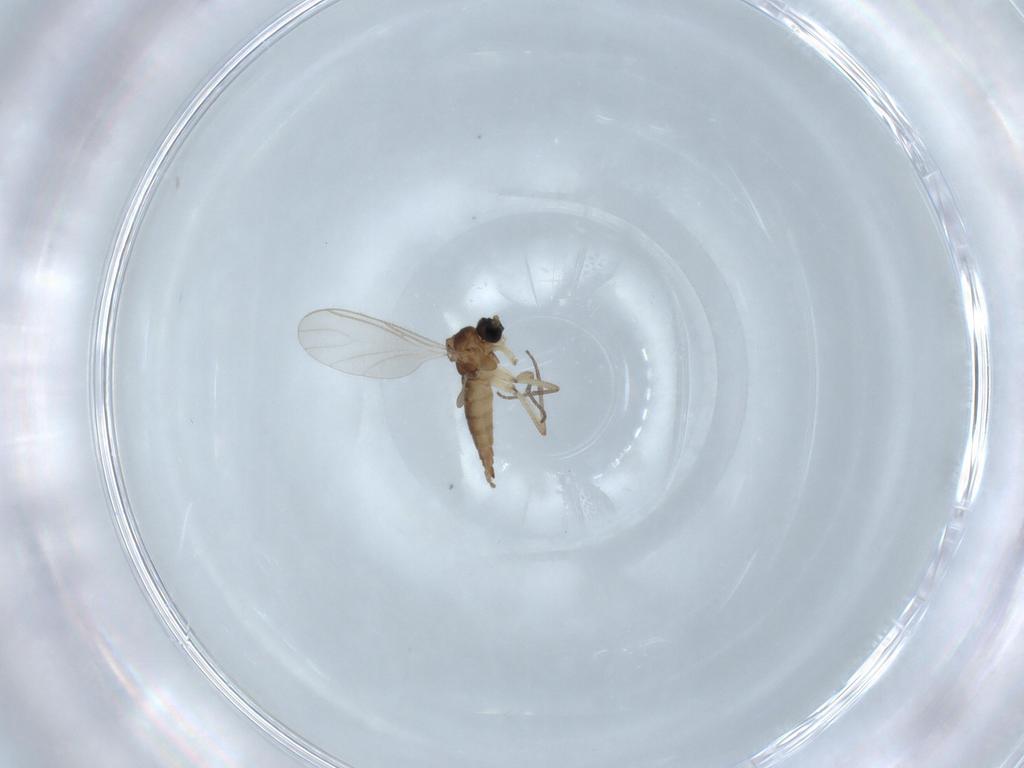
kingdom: Animalia
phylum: Arthropoda
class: Insecta
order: Diptera
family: Sciaridae
